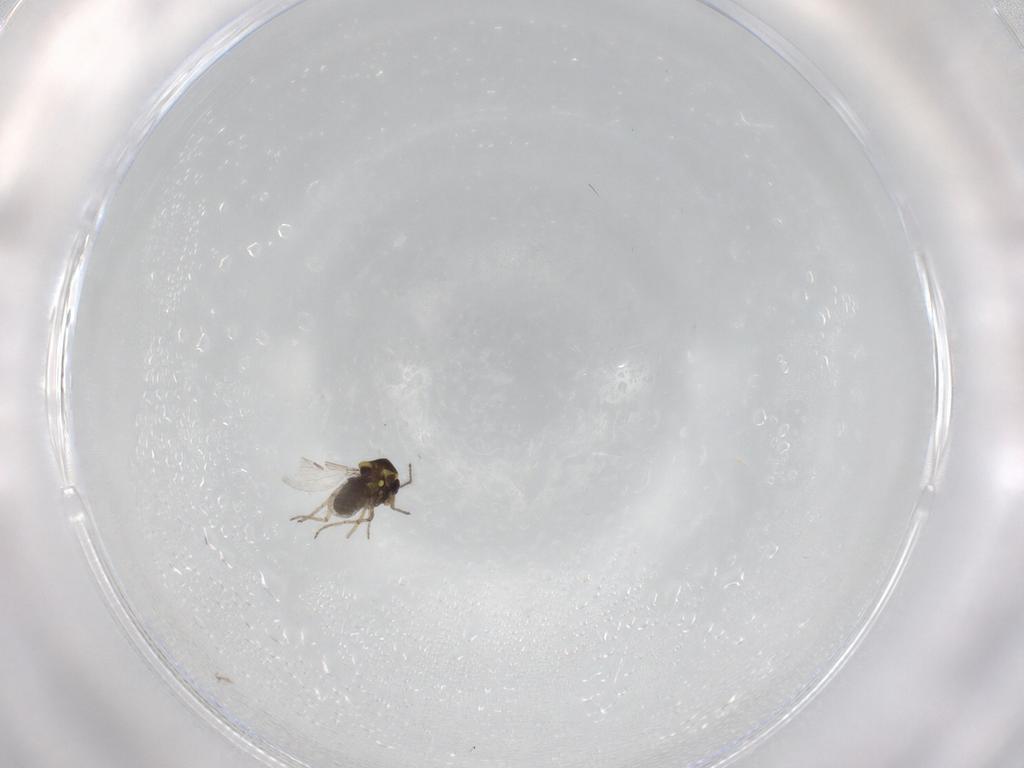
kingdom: Animalia
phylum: Arthropoda
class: Insecta
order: Diptera
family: Ceratopogonidae
